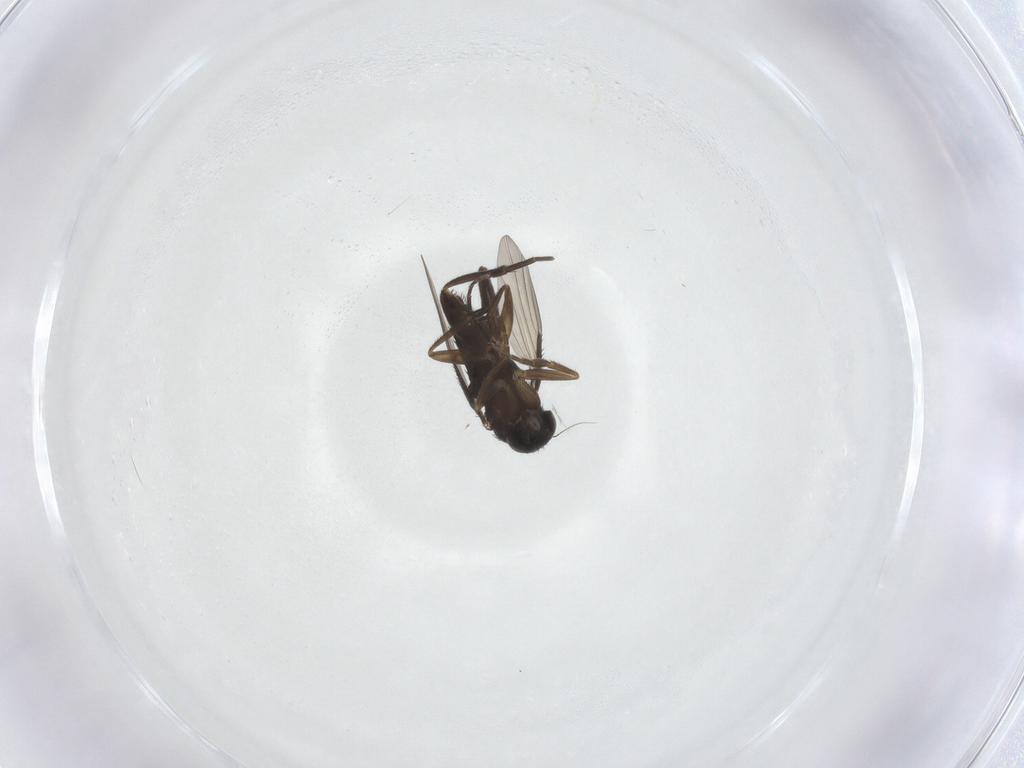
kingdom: Animalia
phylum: Arthropoda
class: Insecta
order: Diptera
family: Phoridae
